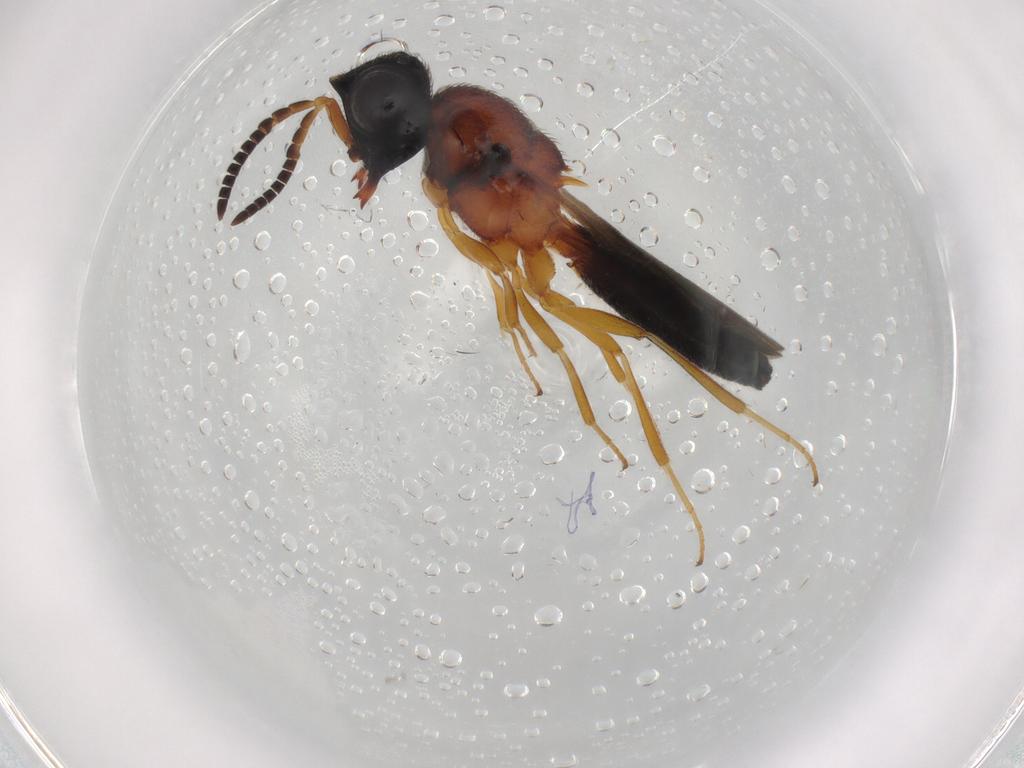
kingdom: Animalia
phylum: Arthropoda
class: Insecta
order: Hymenoptera
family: Scelionidae
